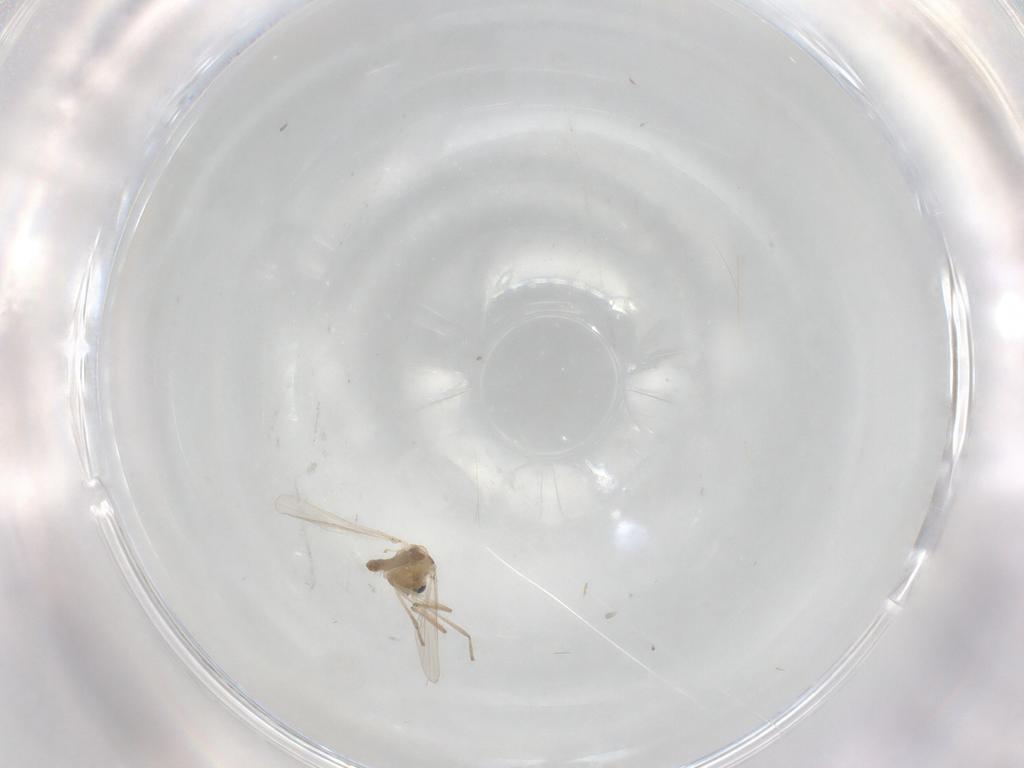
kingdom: Animalia
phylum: Arthropoda
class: Insecta
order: Diptera
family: Chironomidae
